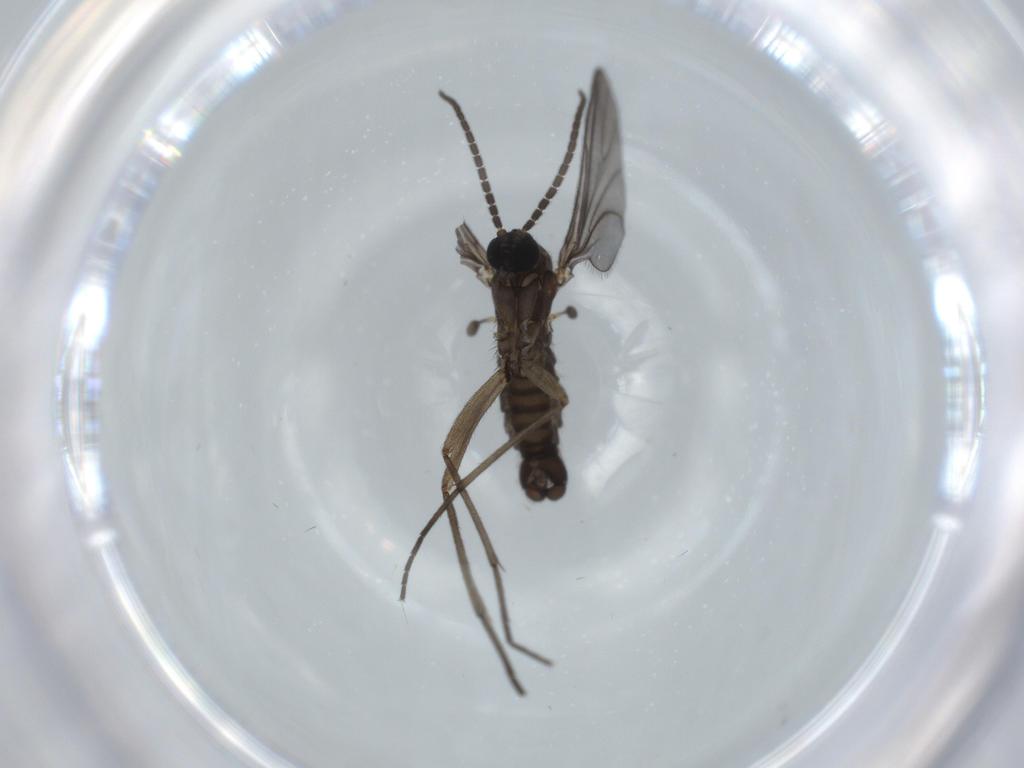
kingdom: Animalia
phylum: Arthropoda
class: Insecta
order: Diptera
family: Sciaridae
